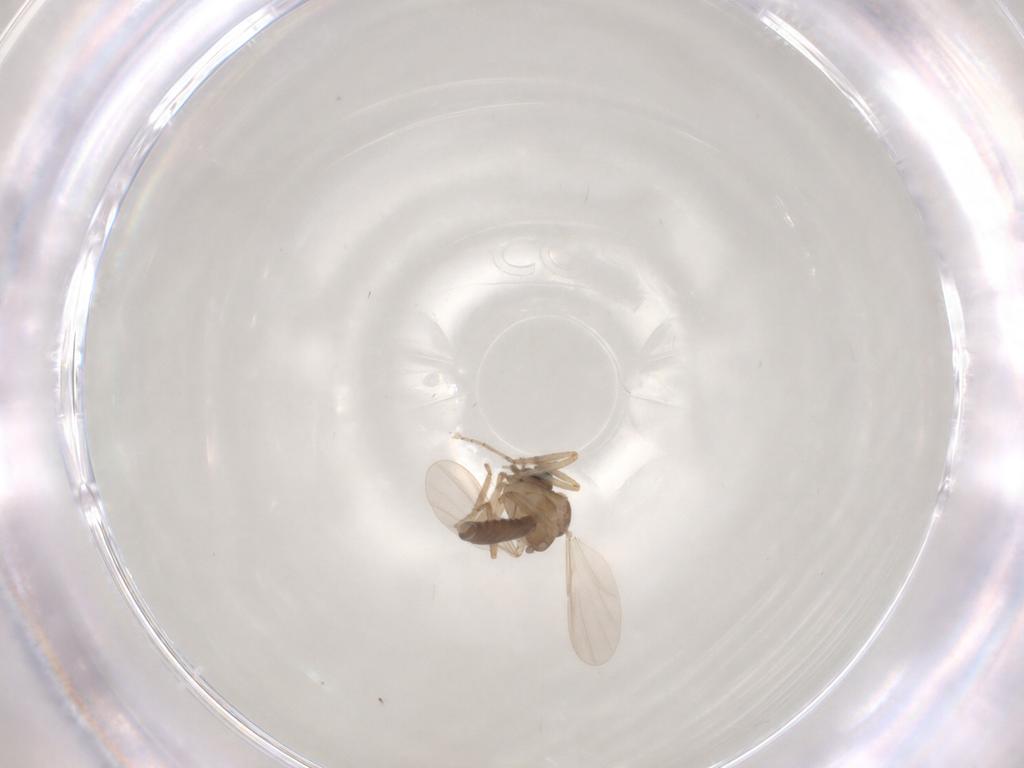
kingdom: Animalia
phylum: Arthropoda
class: Insecta
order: Diptera
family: Ceratopogonidae
